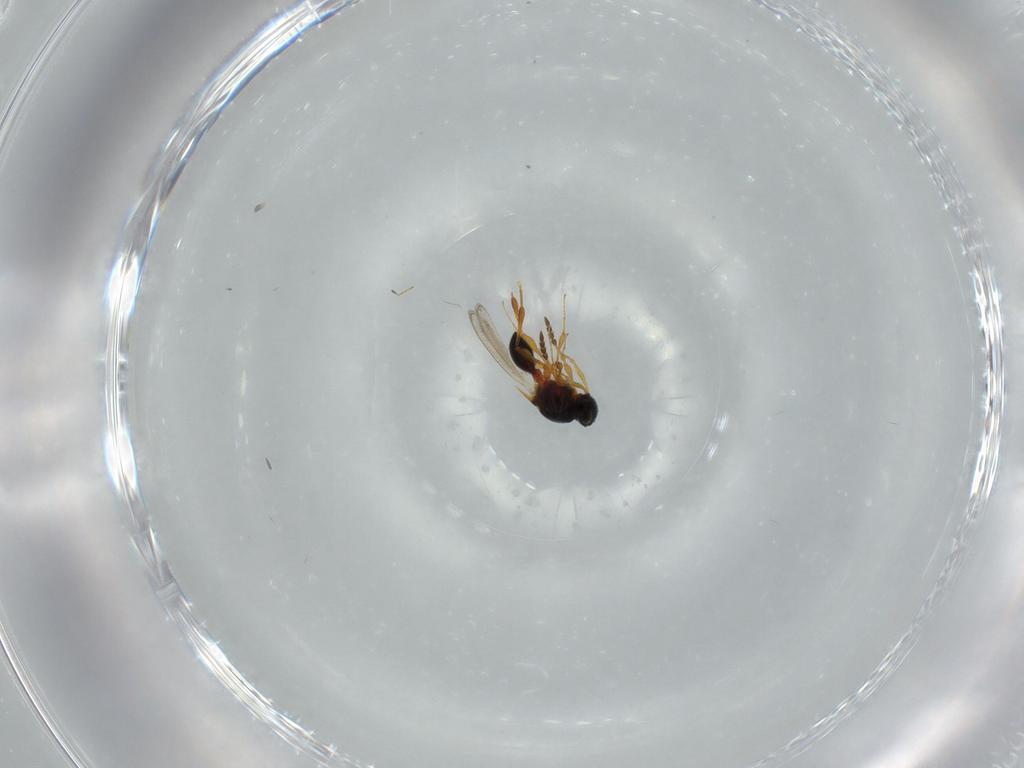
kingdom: Animalia
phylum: Arthropoda
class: Insecta
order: Hymenoptera
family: Platygastridae
